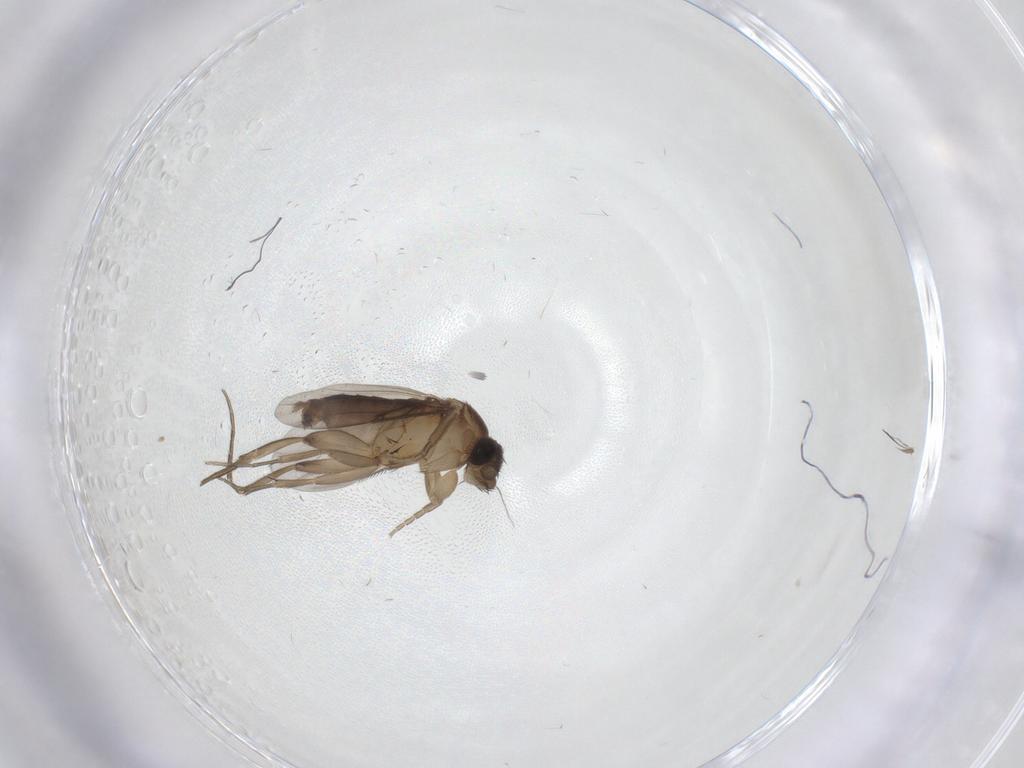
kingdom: Animalia
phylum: Arthropoda
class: Insecta
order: Diptera
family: Phoridae
